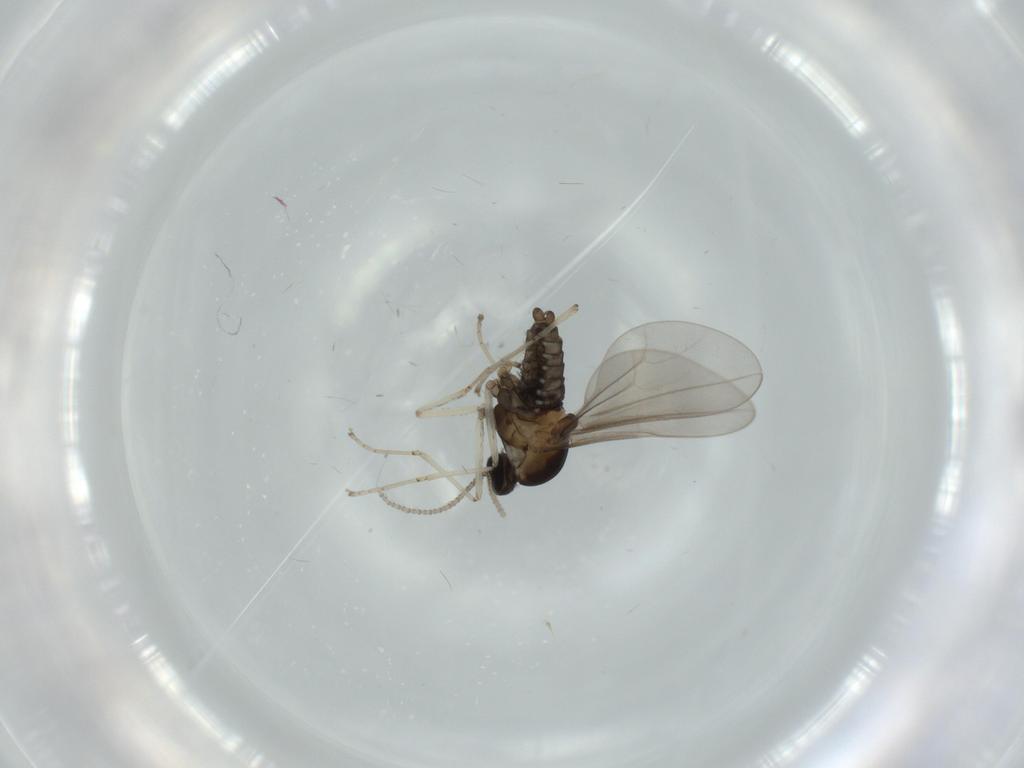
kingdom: Animalia
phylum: Arthropoda
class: Insecta
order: Diptera
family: Cecidomyiidae
